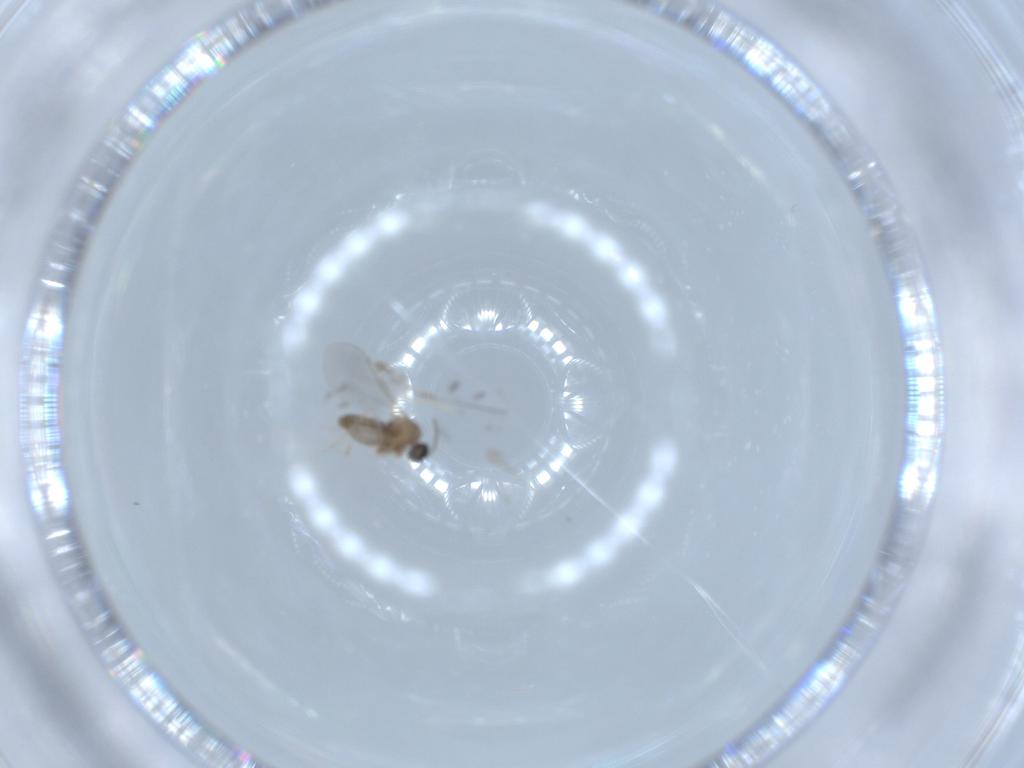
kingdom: Animalia
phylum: Arthropoda
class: Insecta
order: Diptera
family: Cecidomyiidae
